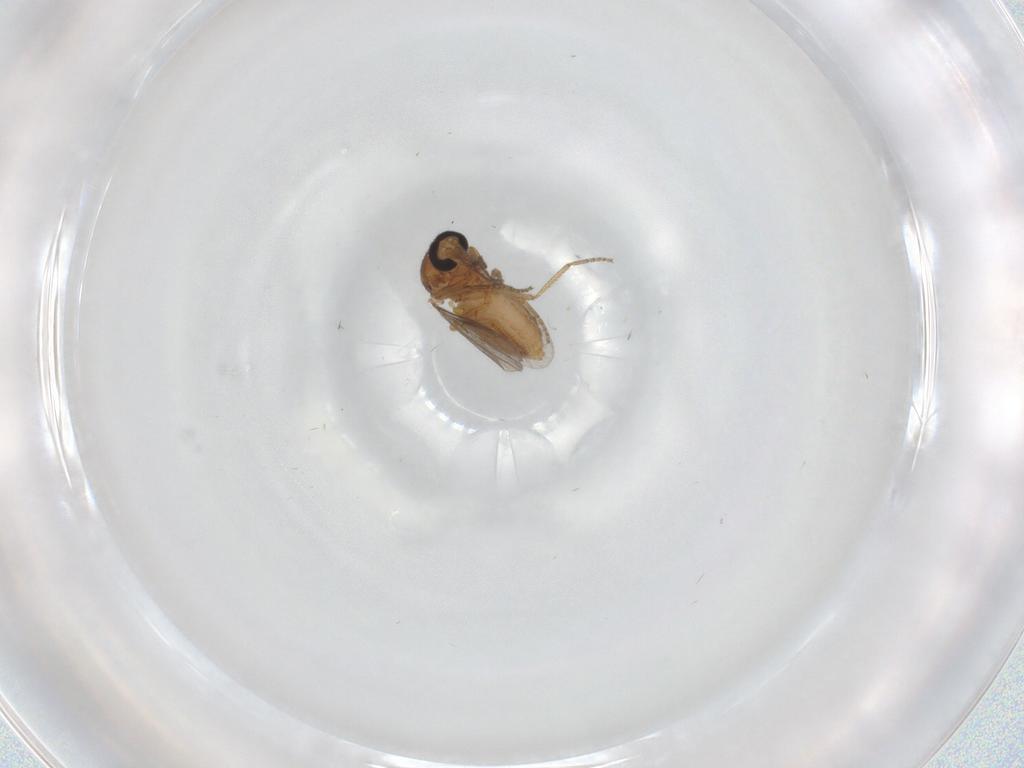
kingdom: Animalia
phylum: Arthropoda
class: Insecta
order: Diptera
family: Ceratopogonidae
